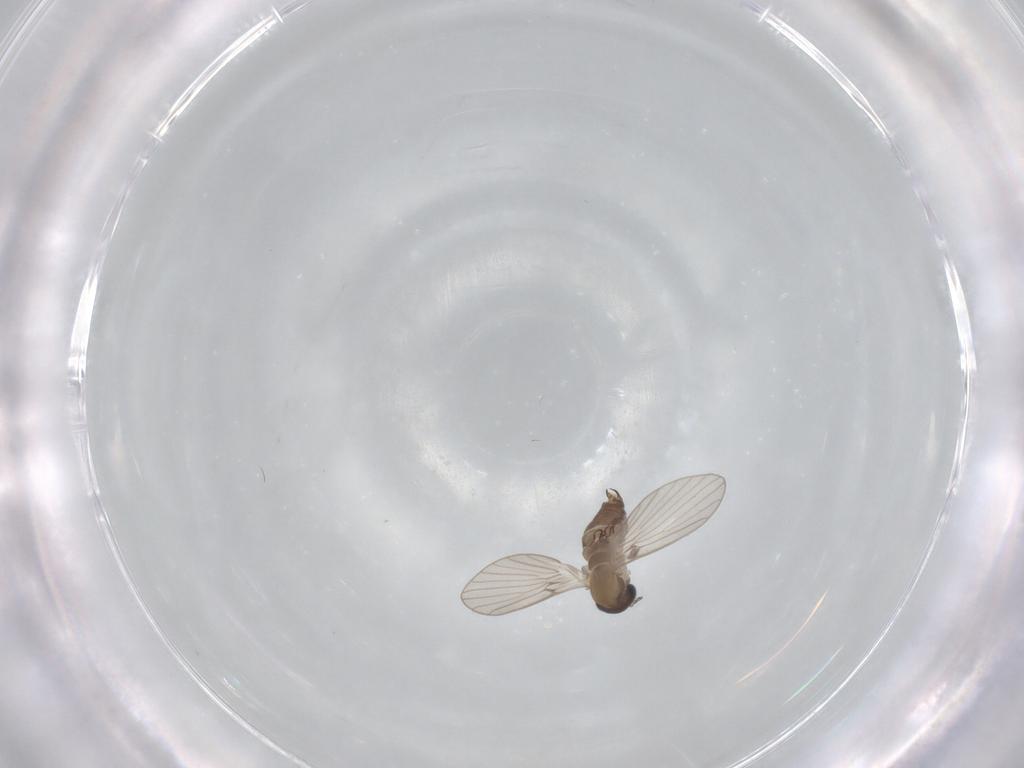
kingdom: Animalia
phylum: Arthropoda
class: Insecta
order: Diptera
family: Psychodidae
